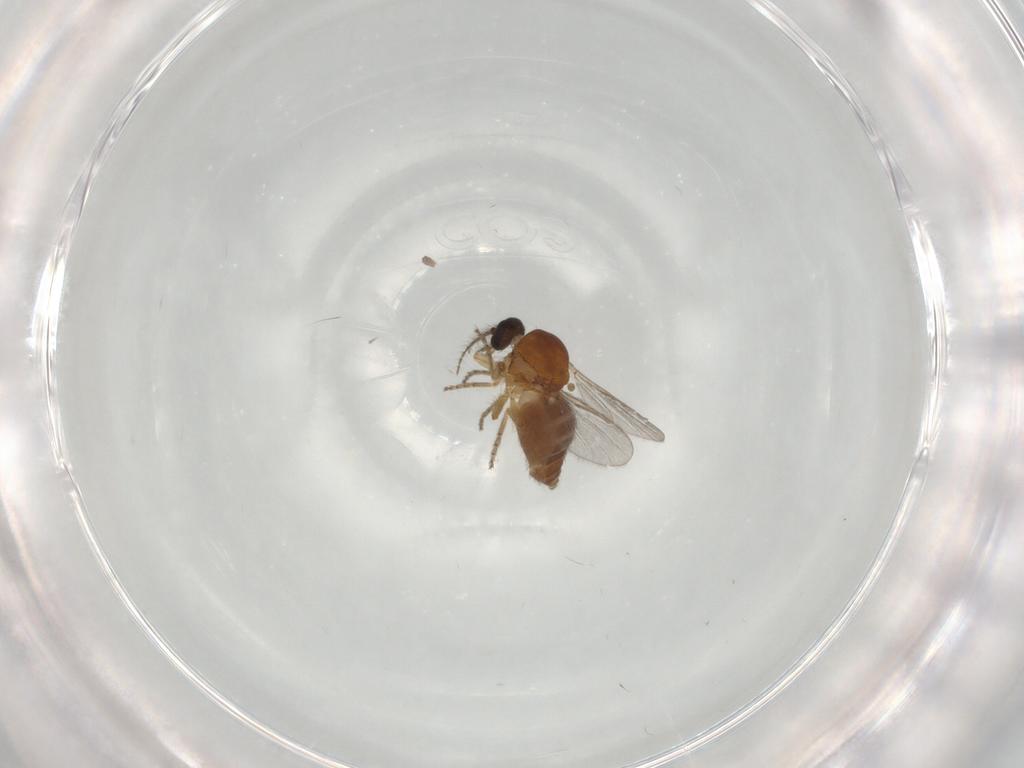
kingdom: Animalia
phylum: Arthropoda
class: Insecta
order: Diptera
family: Ceratopogonidae
